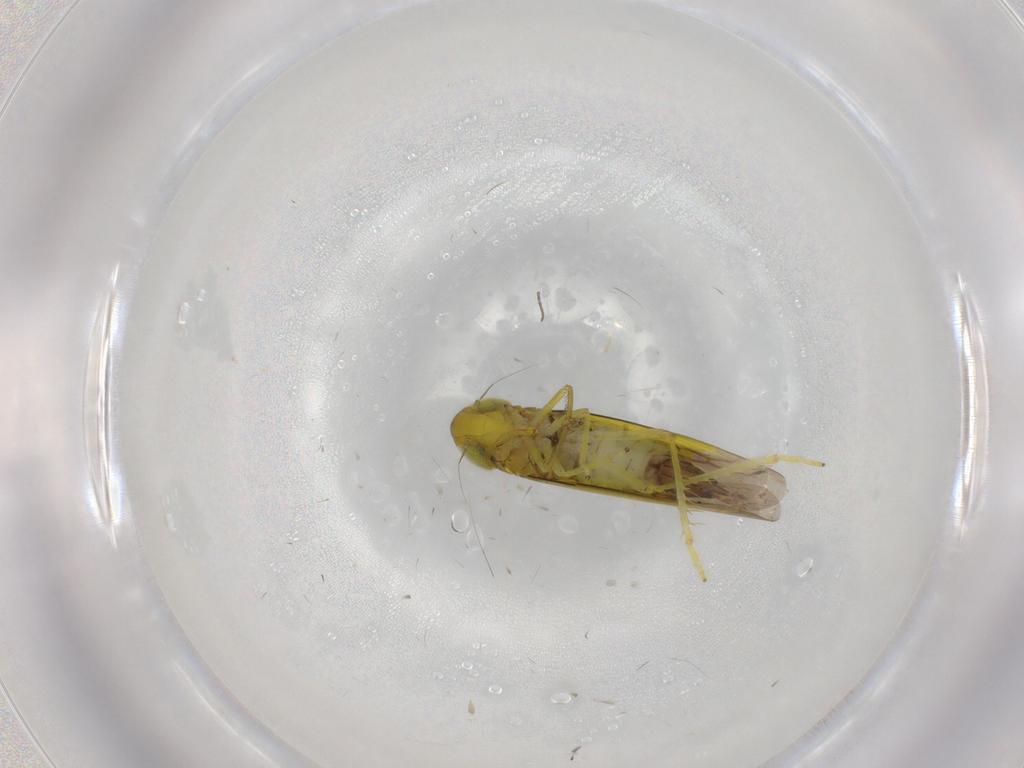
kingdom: Animalia
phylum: Arthropoda
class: Insecta
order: Hemiptera
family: Cicadellidae
